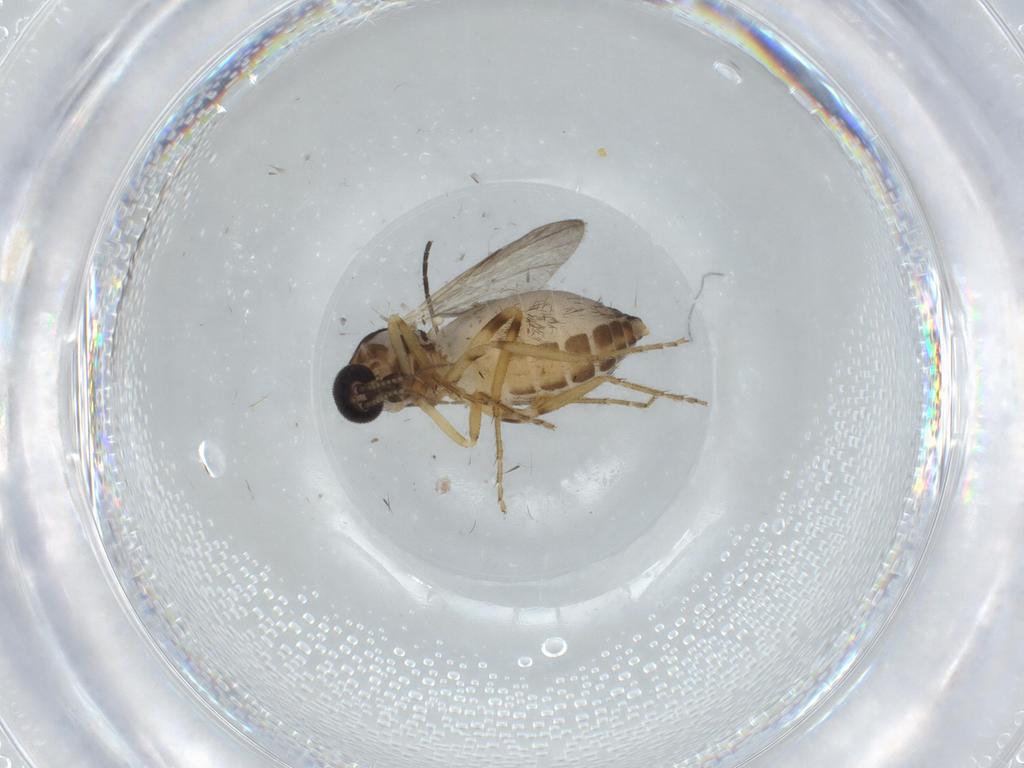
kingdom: Animalia
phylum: Arthropoda
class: Insecta
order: Diptera
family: Ceratopogonidae
